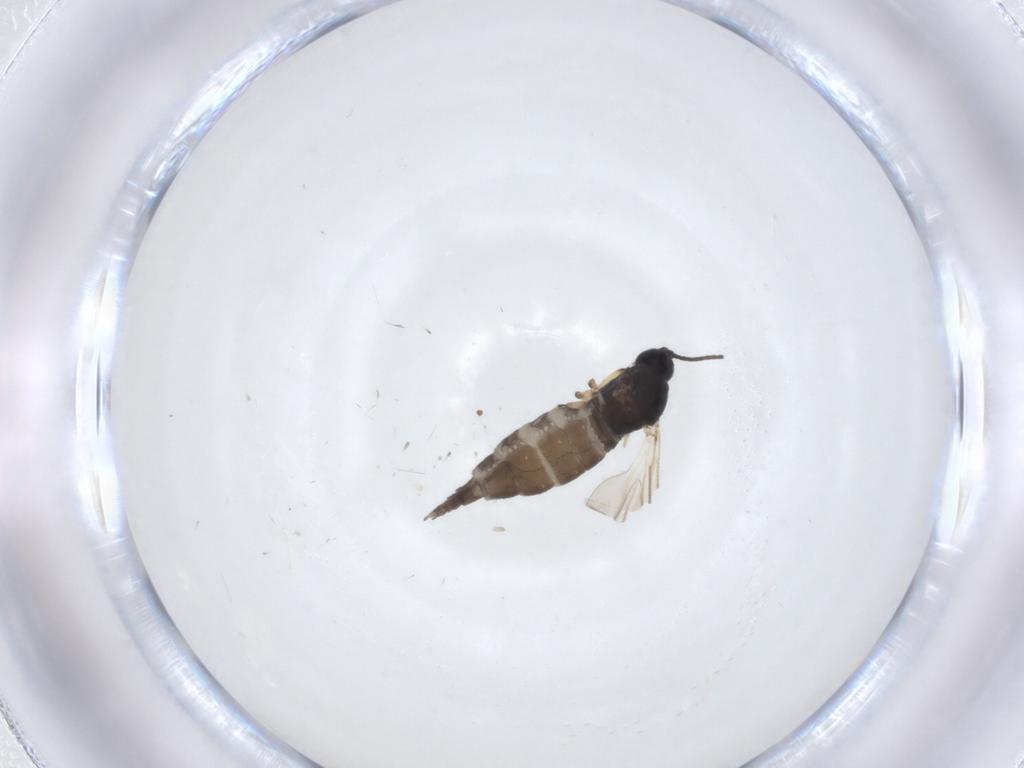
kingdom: Animalia
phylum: Arthropoda
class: Insecta
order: Diptera
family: Sciaridae
